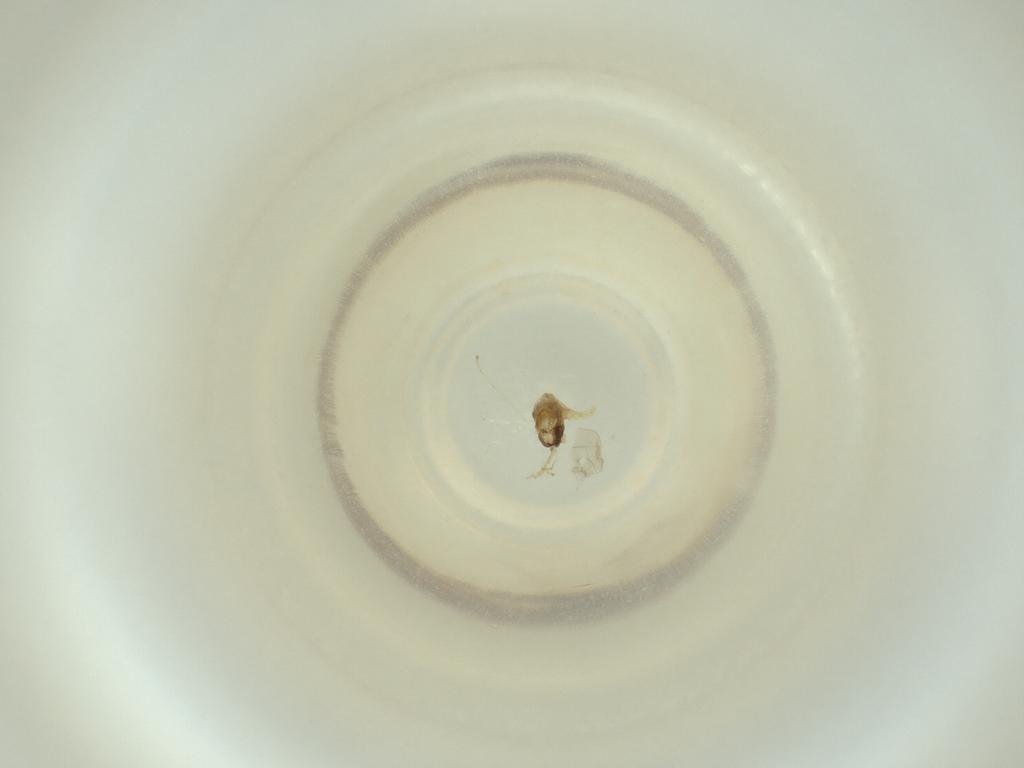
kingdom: Animalia
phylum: Arthropoda
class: Insecta
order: Diptera
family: Cecidomyiidae
